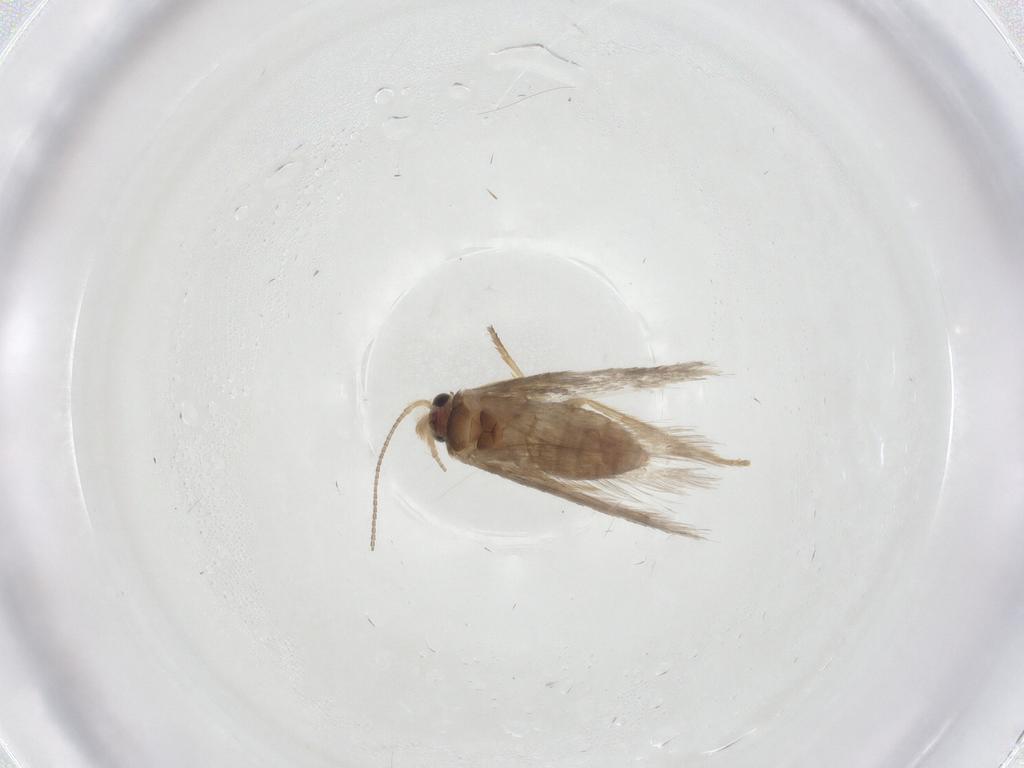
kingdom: Animalia
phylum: Arthropoda
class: Insecta
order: Lepidoptera
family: Nepticulidae
